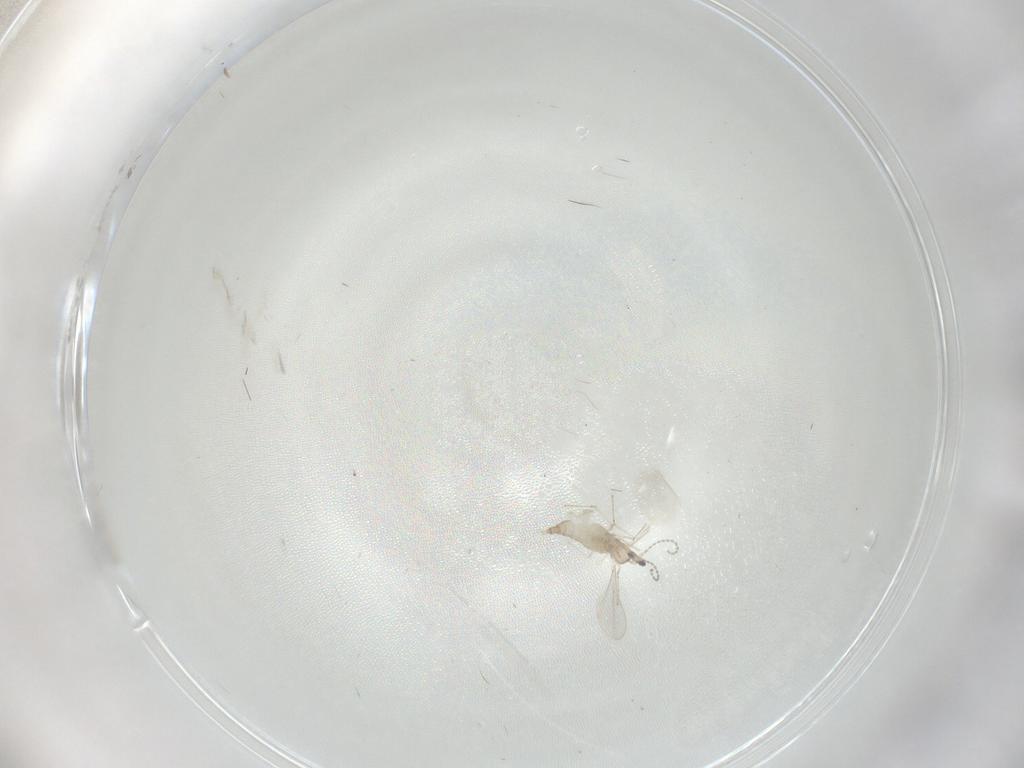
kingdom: Animalia
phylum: Arthropoda
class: Insecta
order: Diptera
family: Cecidomyiidae
